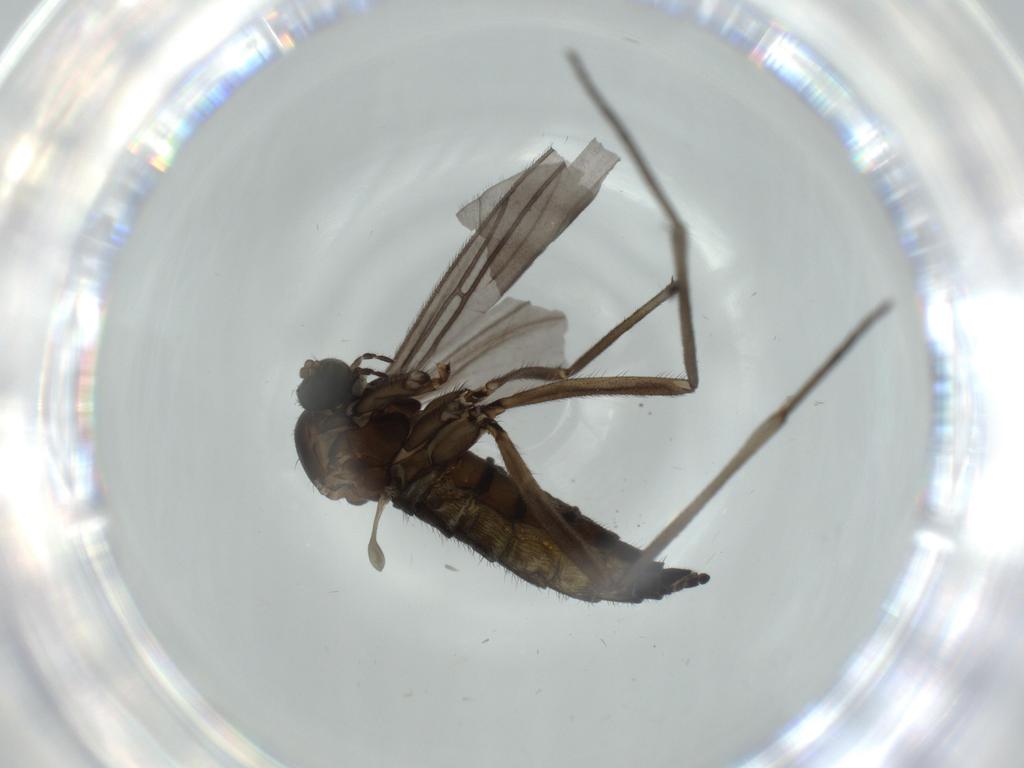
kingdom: Animalia
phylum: Arthropoda
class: Insecta
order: Diptera
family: Sciaridae
